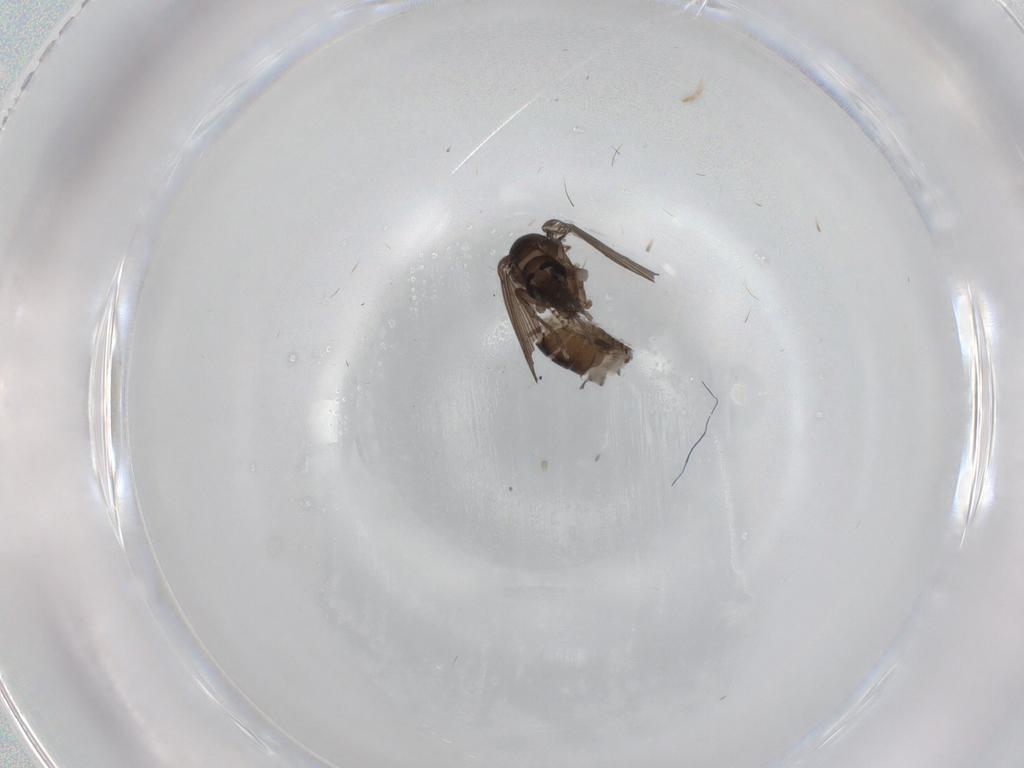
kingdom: Animalia
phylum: Arthropoda
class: Insecta
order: Diptera
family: Psychodidae
